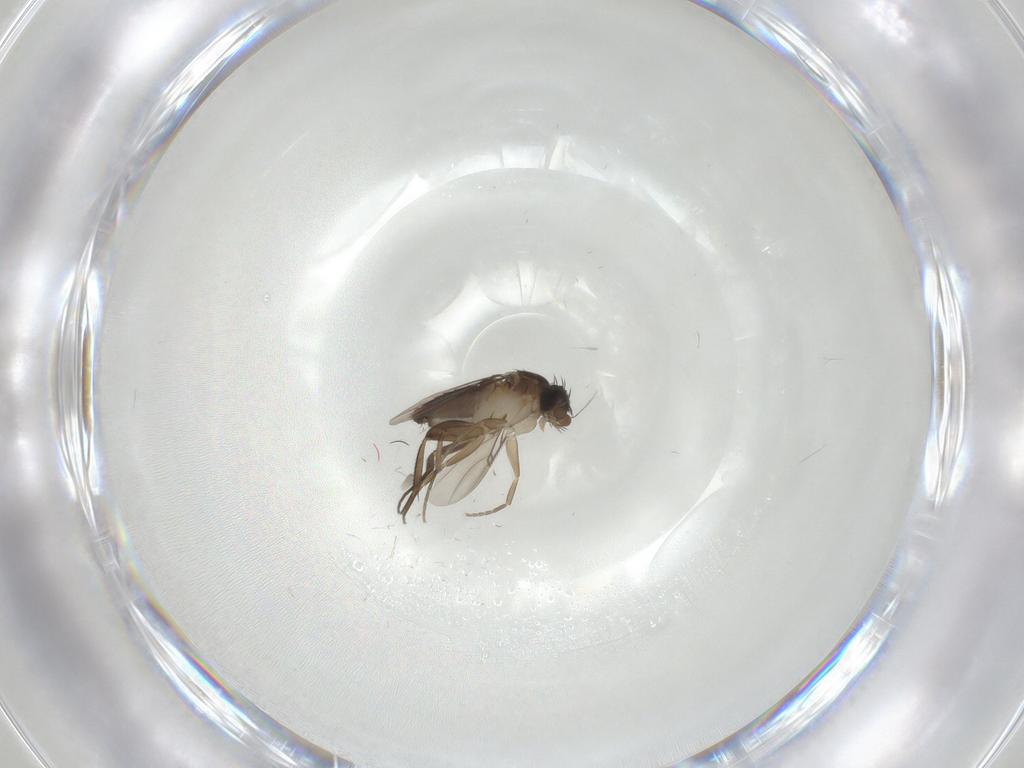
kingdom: Animalia
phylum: Arthropoda
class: Insecta
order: Diptera
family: Phoridae
